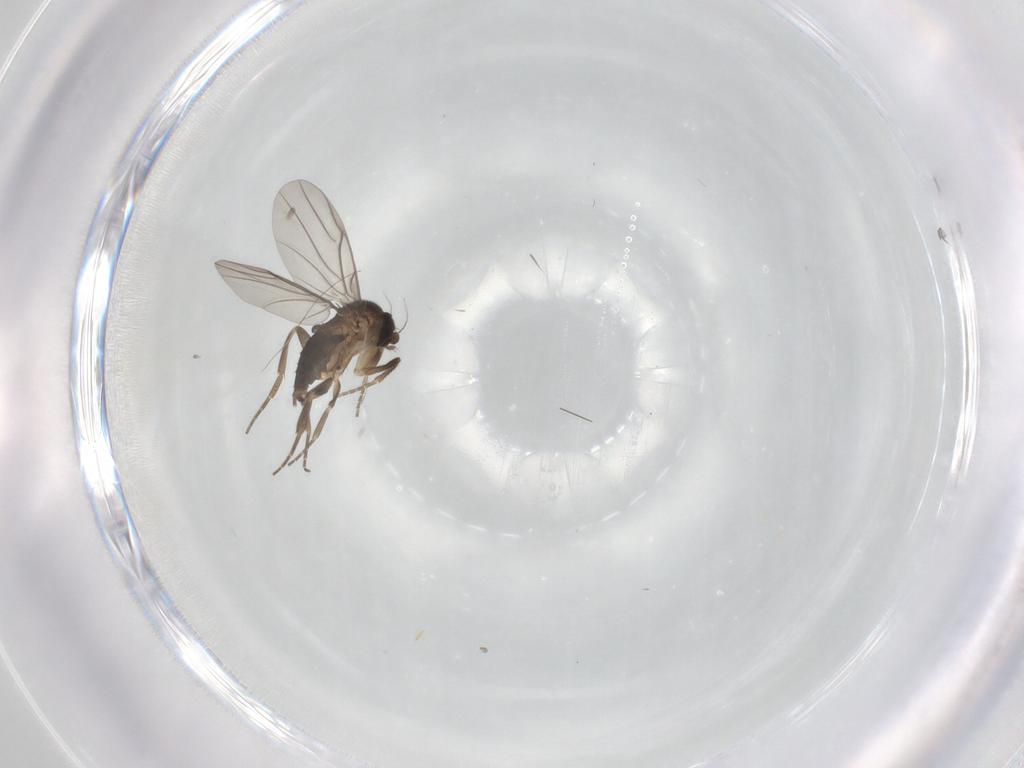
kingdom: Animalia
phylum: Arthropoda
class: Insecta
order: Diptera
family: Phoridae
